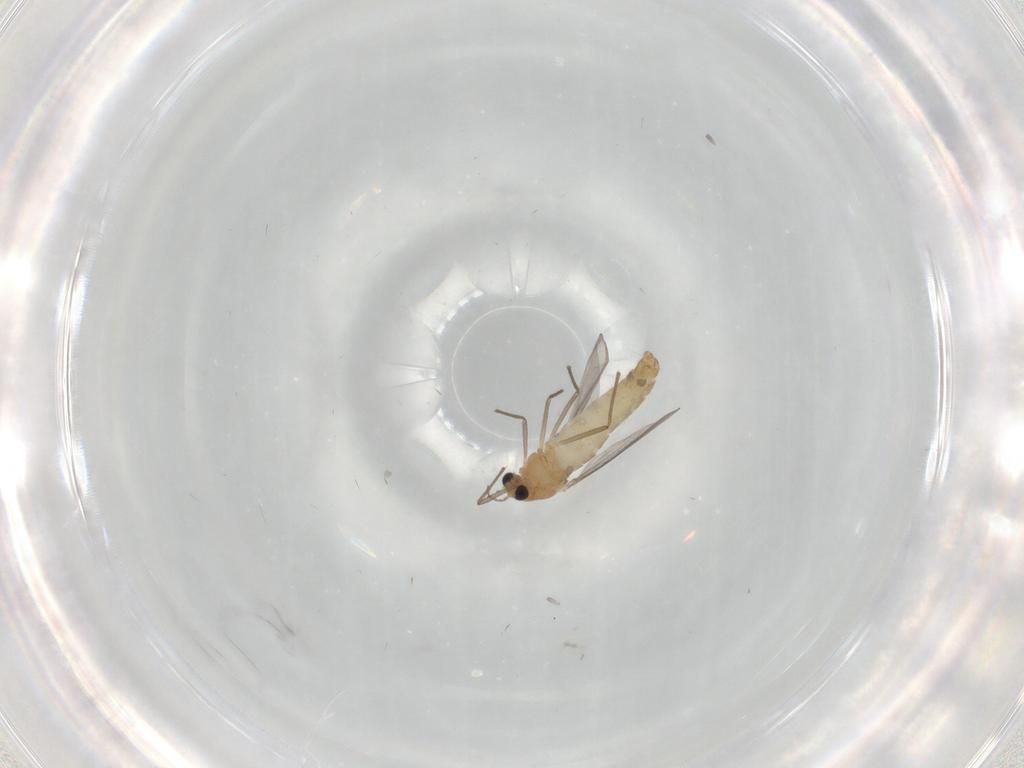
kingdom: Animalia
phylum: Arthropoda
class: Insecta
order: Diptera
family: Chironomidae
